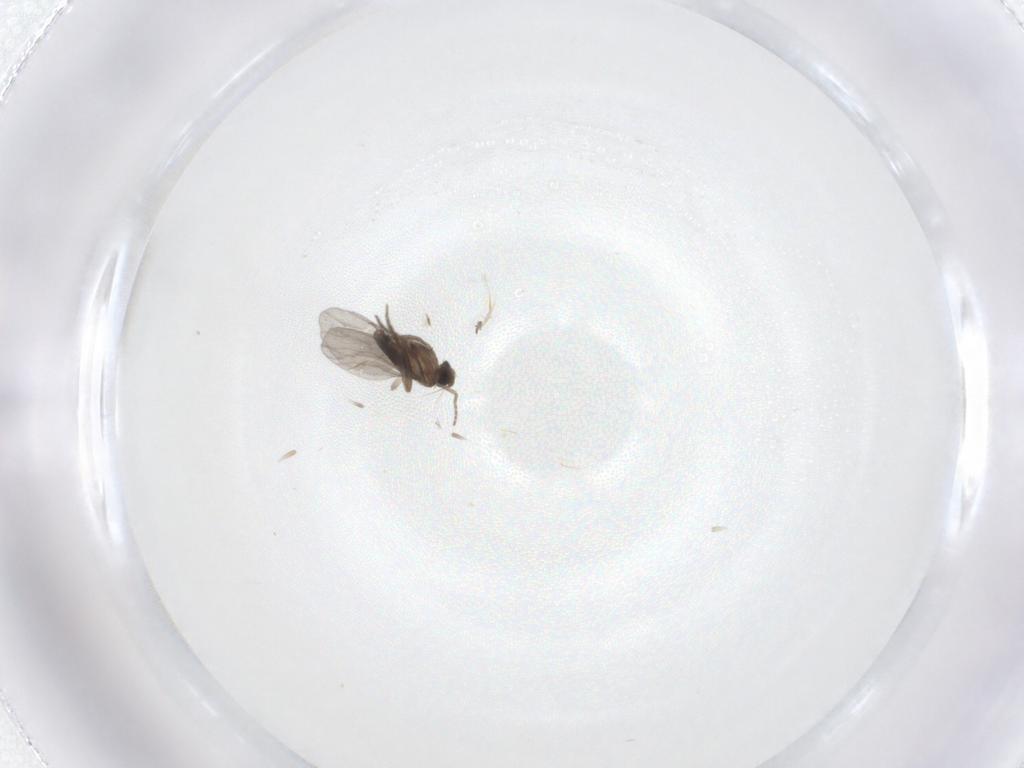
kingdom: Animalia
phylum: Arthropoda
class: Insecta
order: Diptera
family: Phoridae
